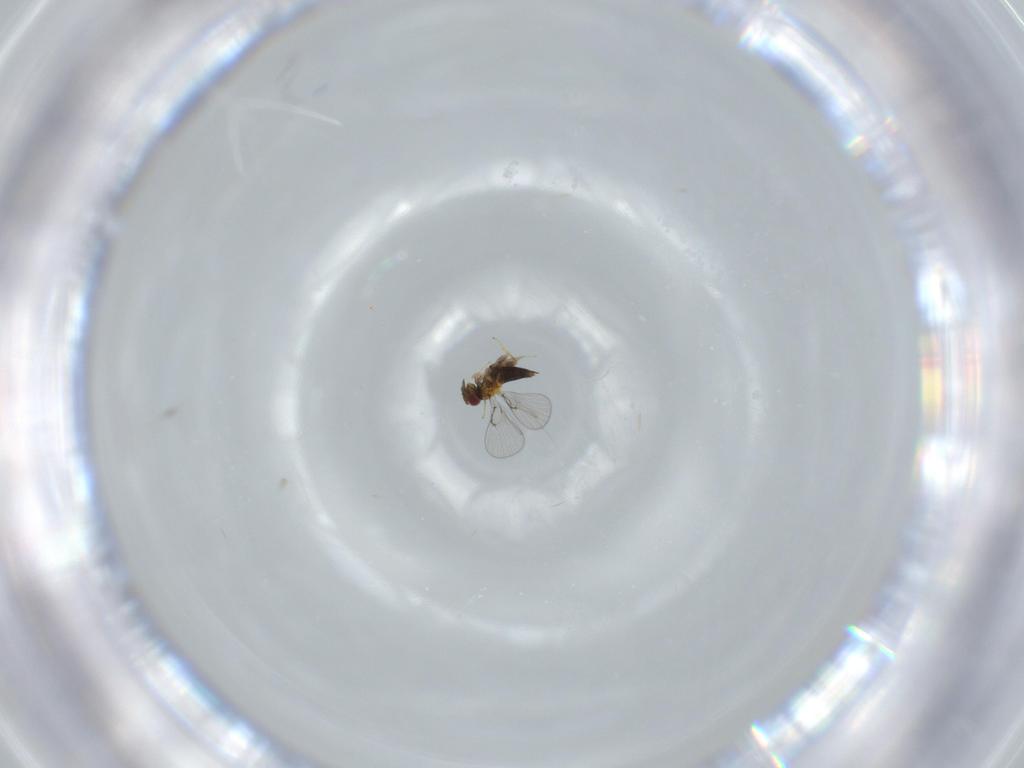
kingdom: Animalia
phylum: Arthropoda
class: Insecta
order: Hymenoptera
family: Trichogrammatidae
